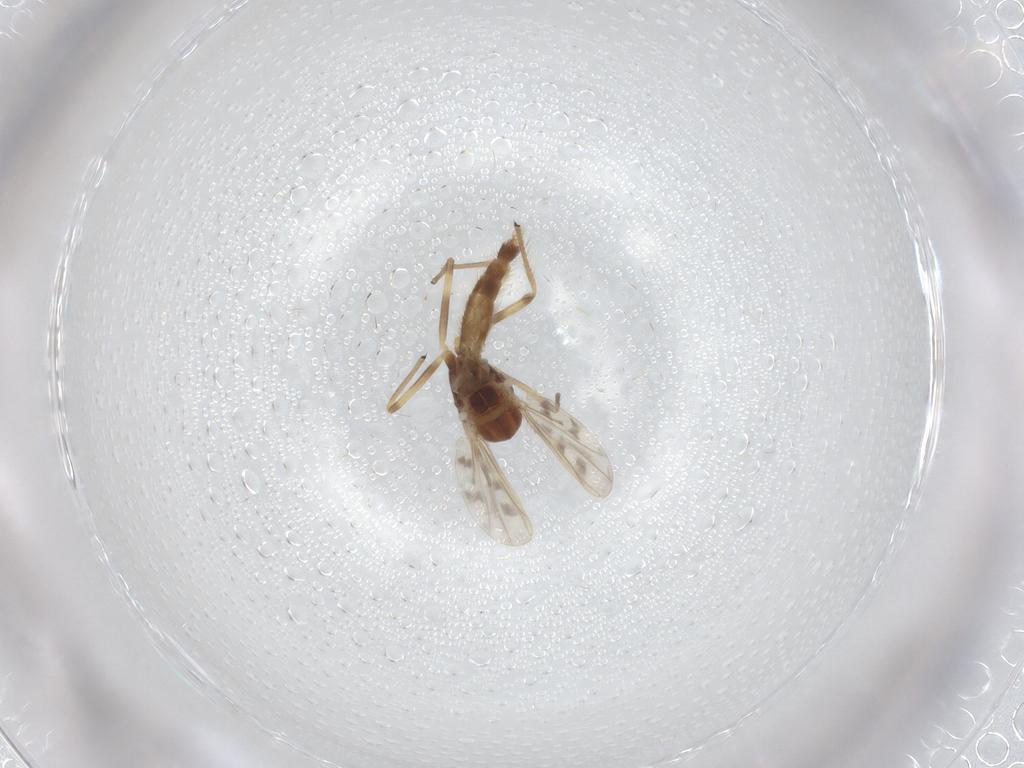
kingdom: Animalia
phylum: Arthropoda
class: Insecta
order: Diptera
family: Chironomidae
